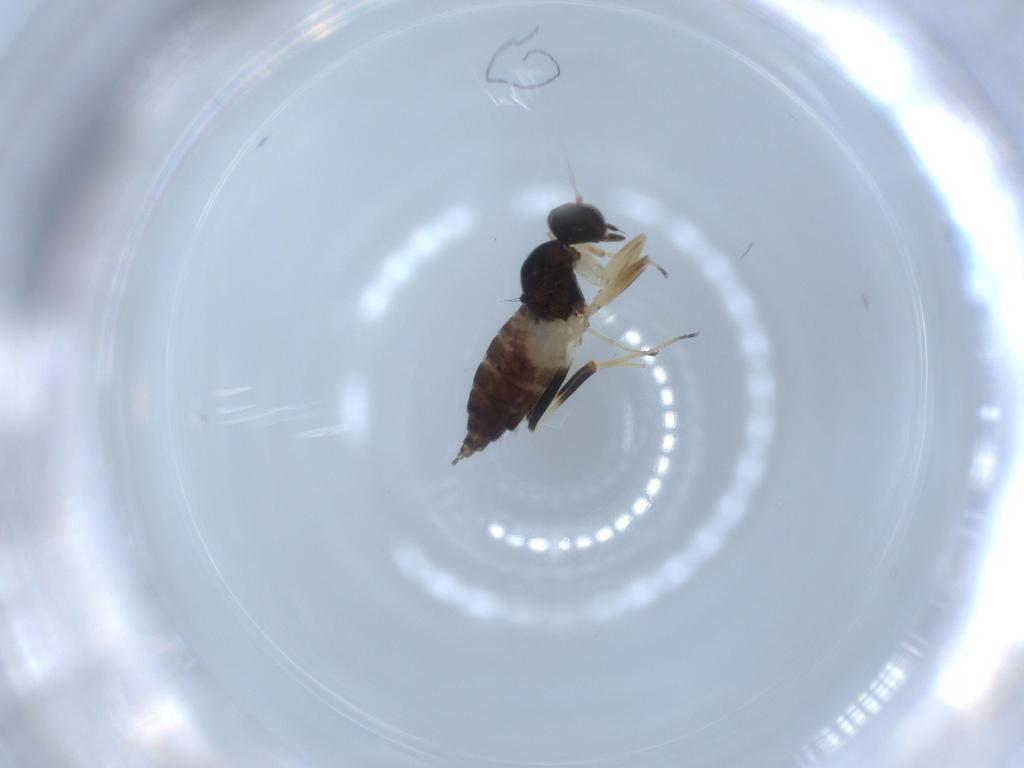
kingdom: Animalia
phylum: Arthropoda
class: Insecta
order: Diptera
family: Hybotidae
